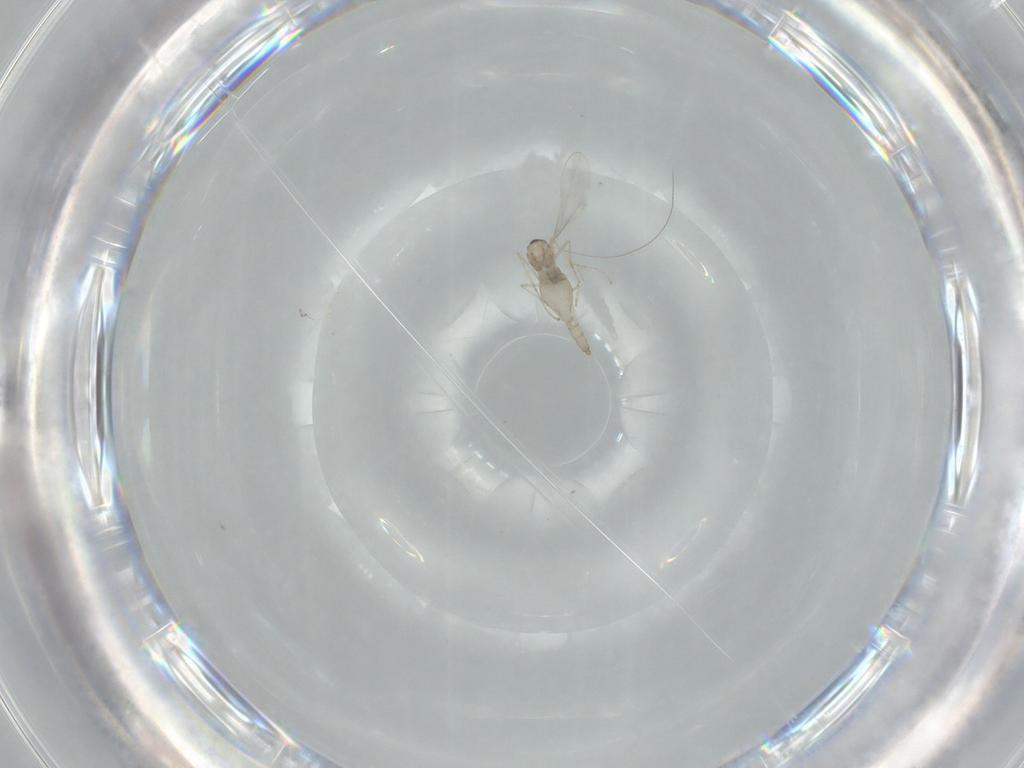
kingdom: Animalia
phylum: Arthropoda
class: Insecta
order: Diptera
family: Cecidomyiidae
